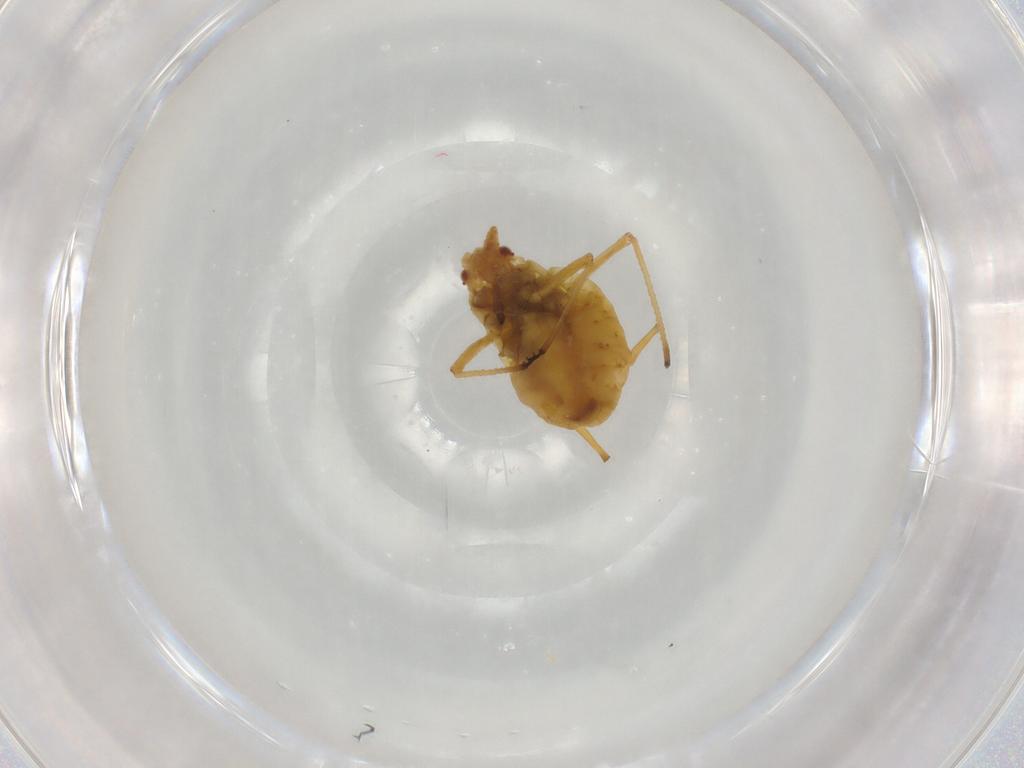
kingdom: Animalia
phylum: Arthropoda
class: Insecta
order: Hemiptera
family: Aphididae
